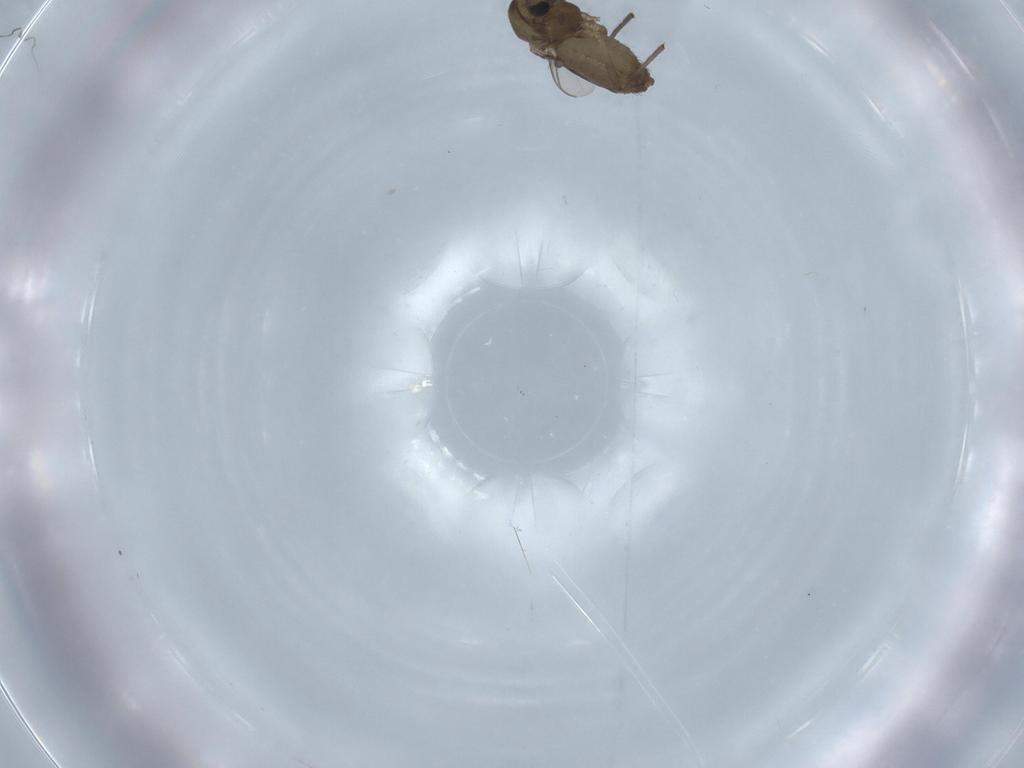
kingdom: Animalia
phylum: Arthropoda
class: Insecta
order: Diptera
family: Chironomidae
